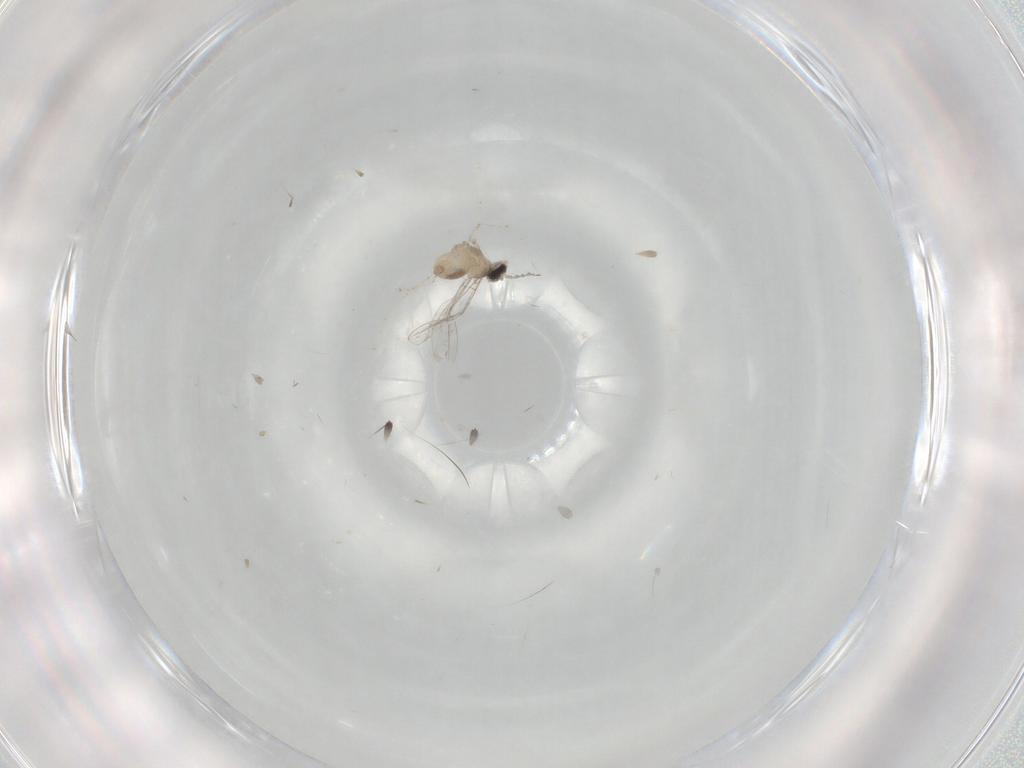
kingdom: Animalia
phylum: Arthropoda
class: Insecta
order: Diptera
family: Cecidomyiidae
